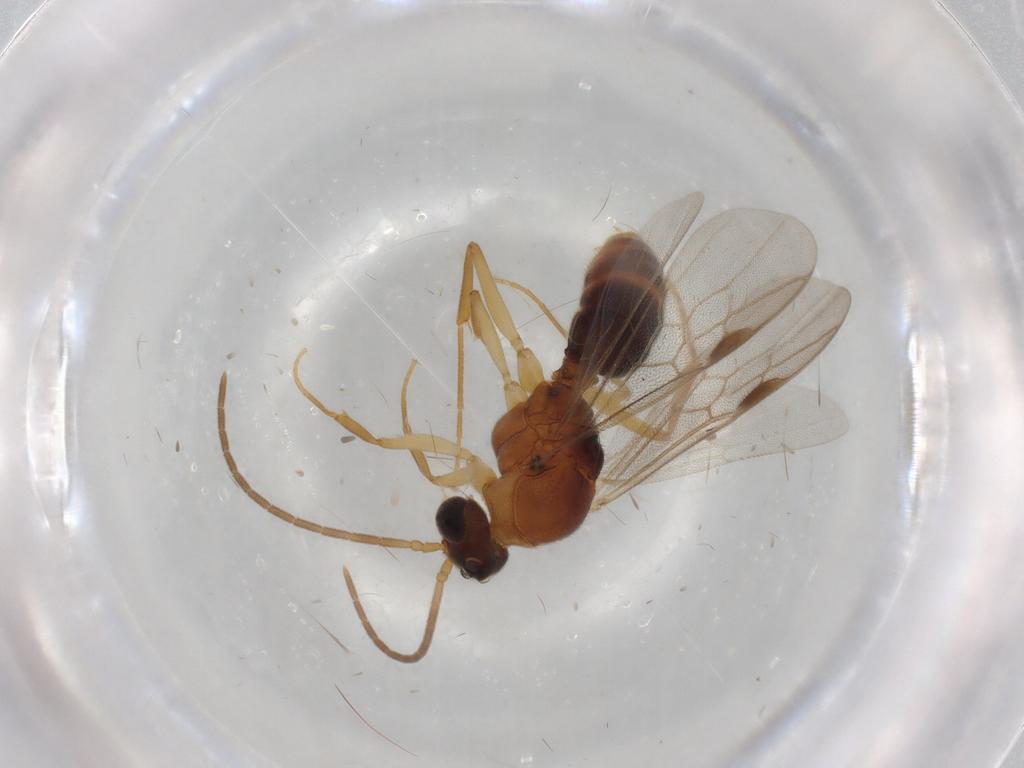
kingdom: Animalia
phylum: Arthropoda
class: Insecta
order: Hymenoptera
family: Formicidae
